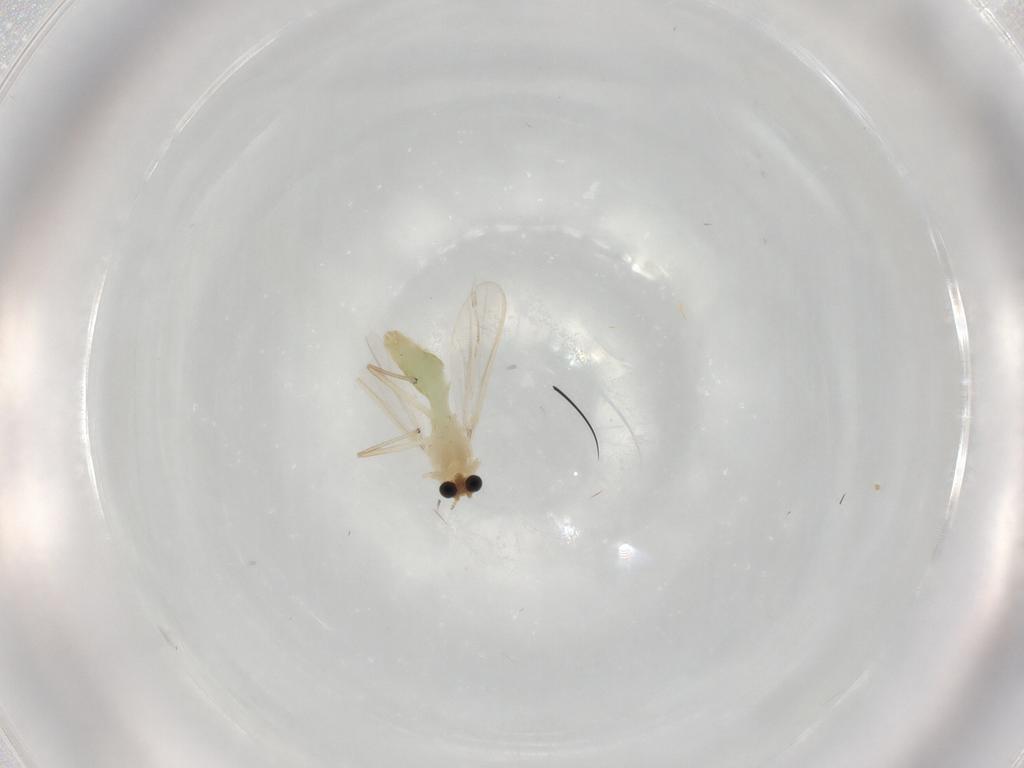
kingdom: Animalia
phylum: Arthropoda
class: Insecta
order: Diptera
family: Chironomidae
